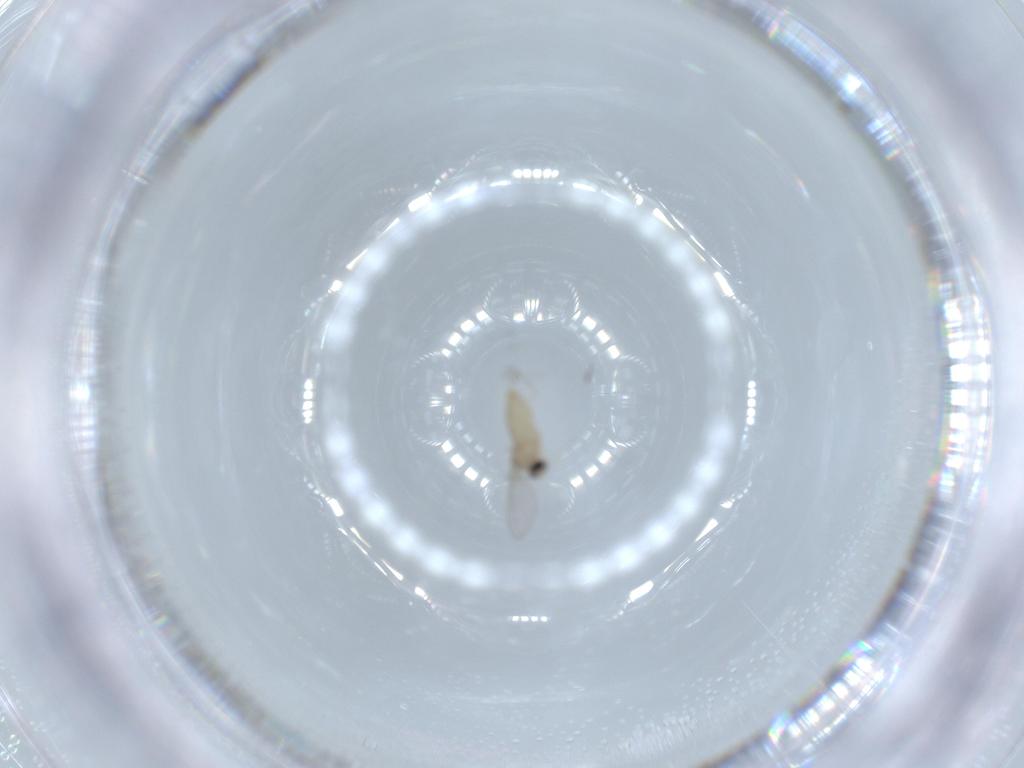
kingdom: Animalia
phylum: Arthropoda
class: Insecta
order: Diptera
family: Cecidomyiidae
